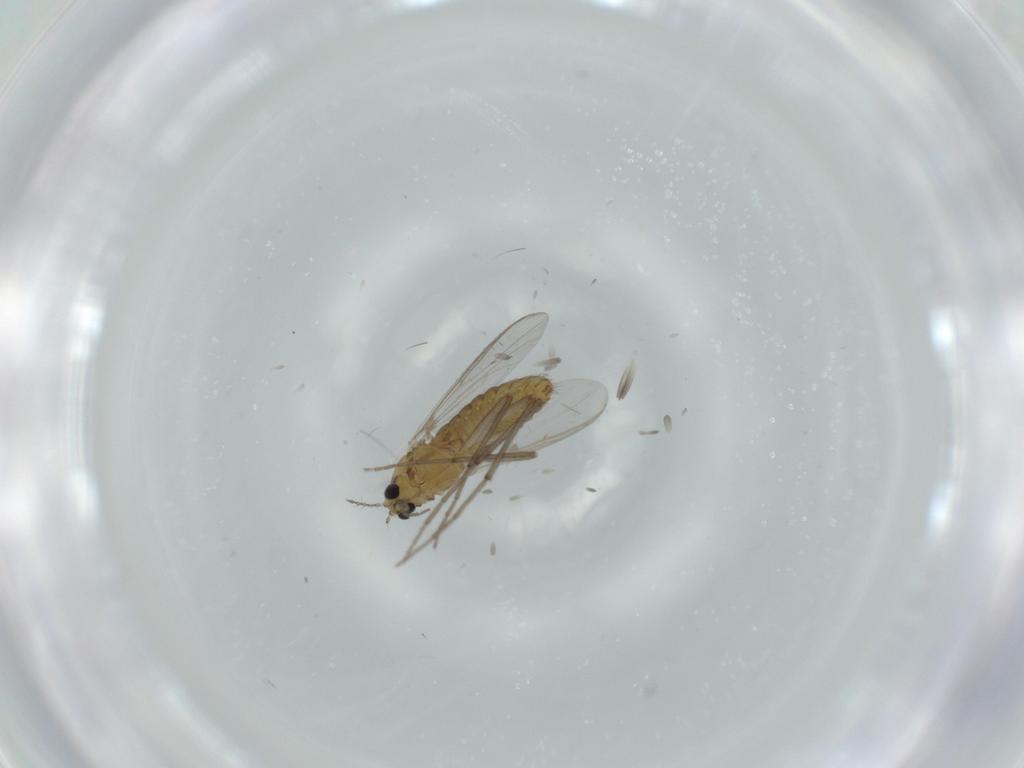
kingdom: Animalia
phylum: Arthropoda
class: Insecta
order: Diptera
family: Chironomidae
